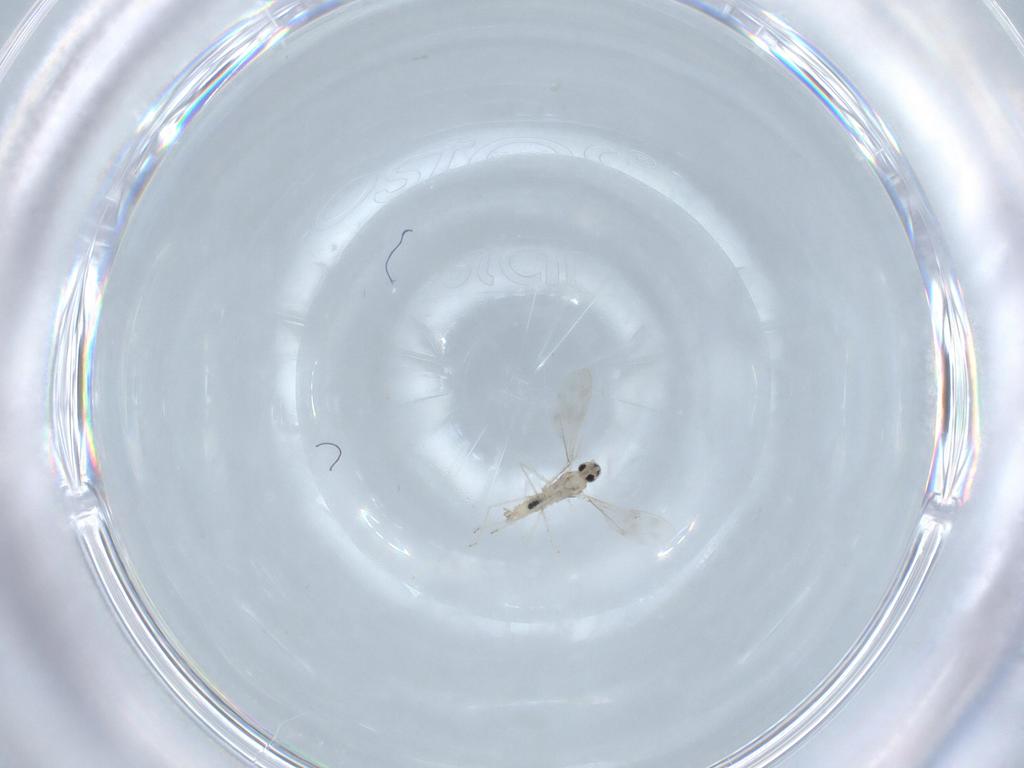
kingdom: Animalia
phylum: Arthropoda
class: Insecta
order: Diptera
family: Cecidomyiidae
